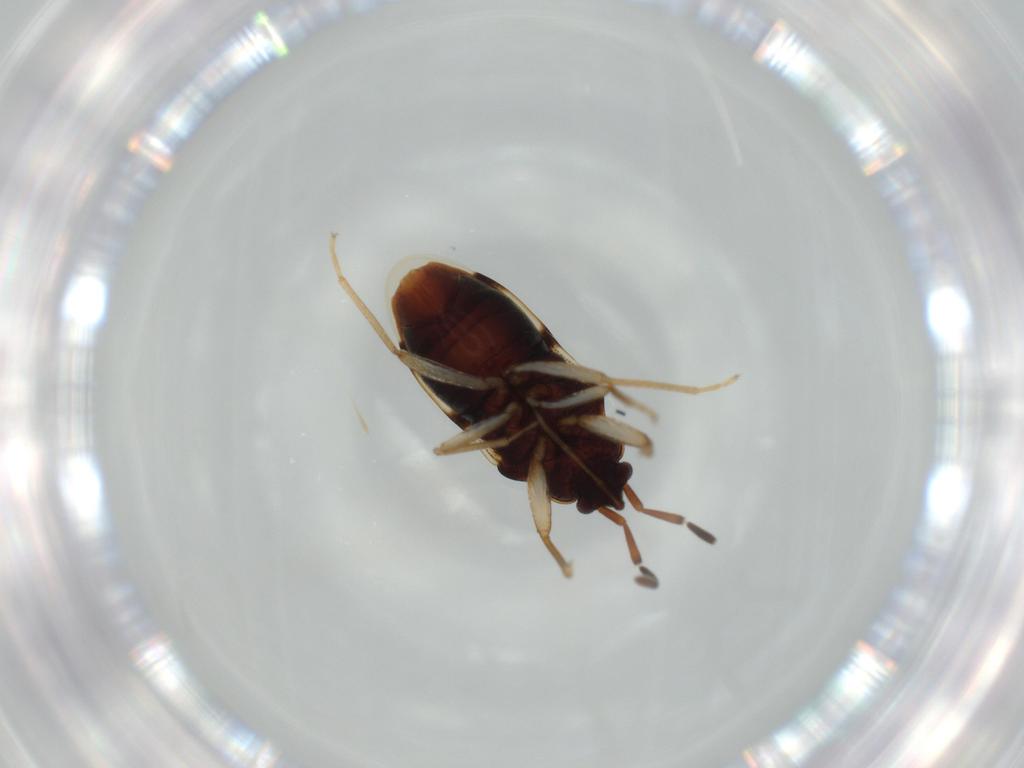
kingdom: Animalia
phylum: Arthropoda
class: Insecta
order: Hemiptera
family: Rhyparochromidae
